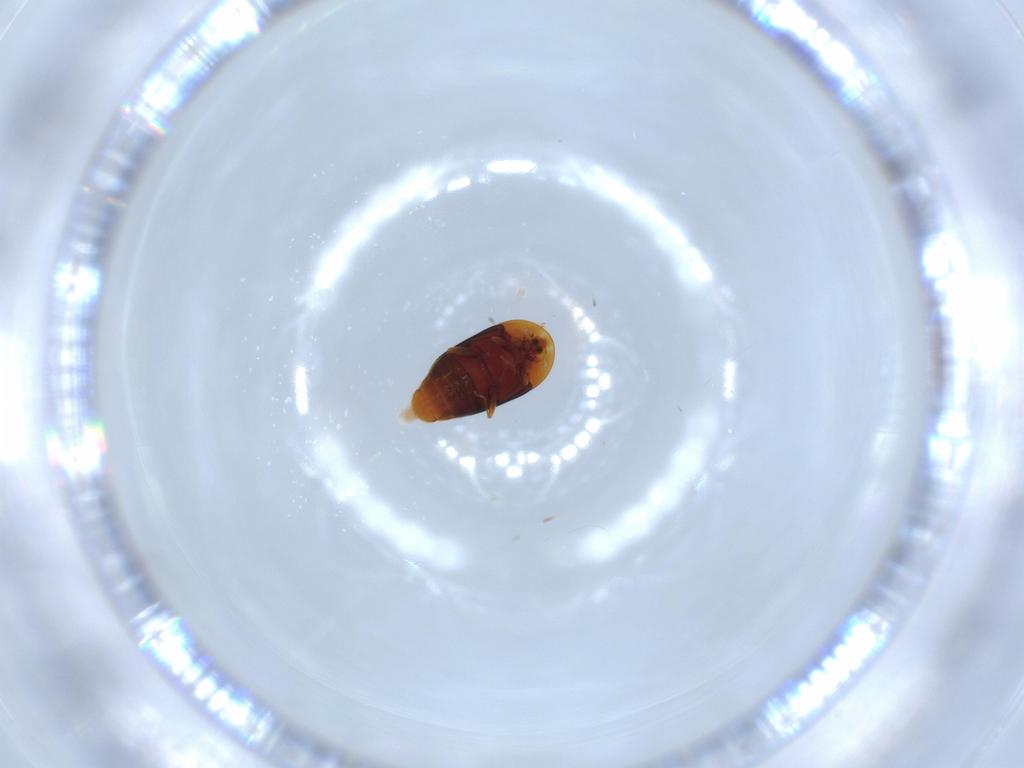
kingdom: Animalia
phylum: Arthropoda
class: Insecta
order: Coleoptera
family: Corylophidae
